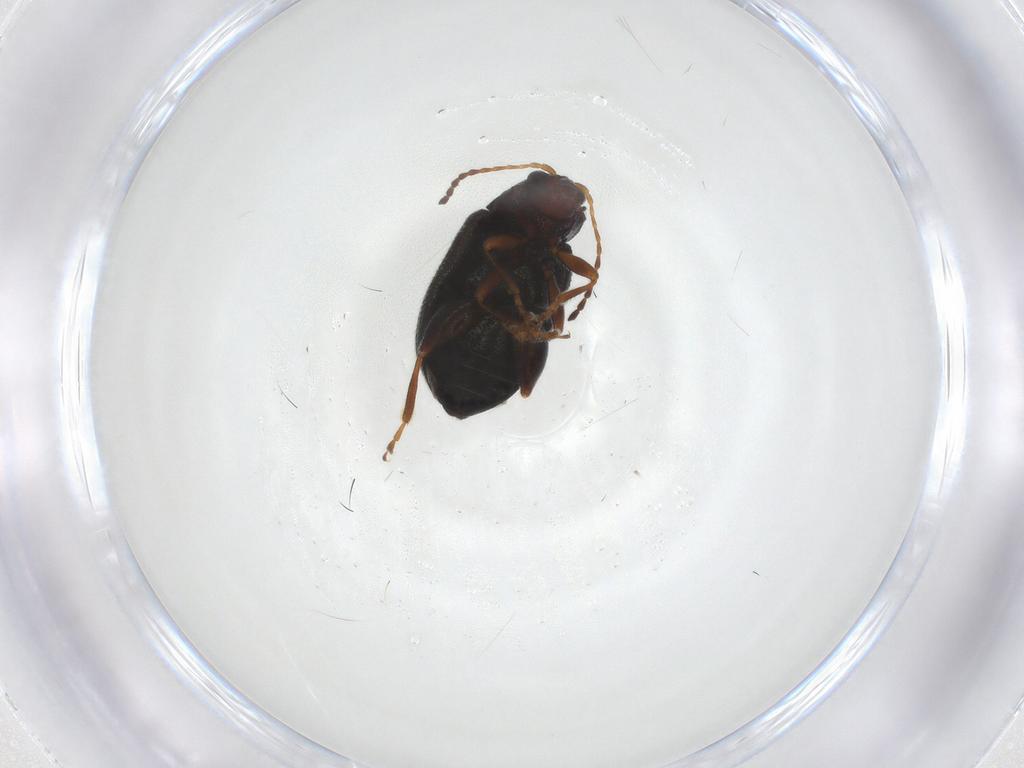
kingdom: Animalia
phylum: Arthropoda
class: Insecta
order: Coleoptera
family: Chrysomelidae
